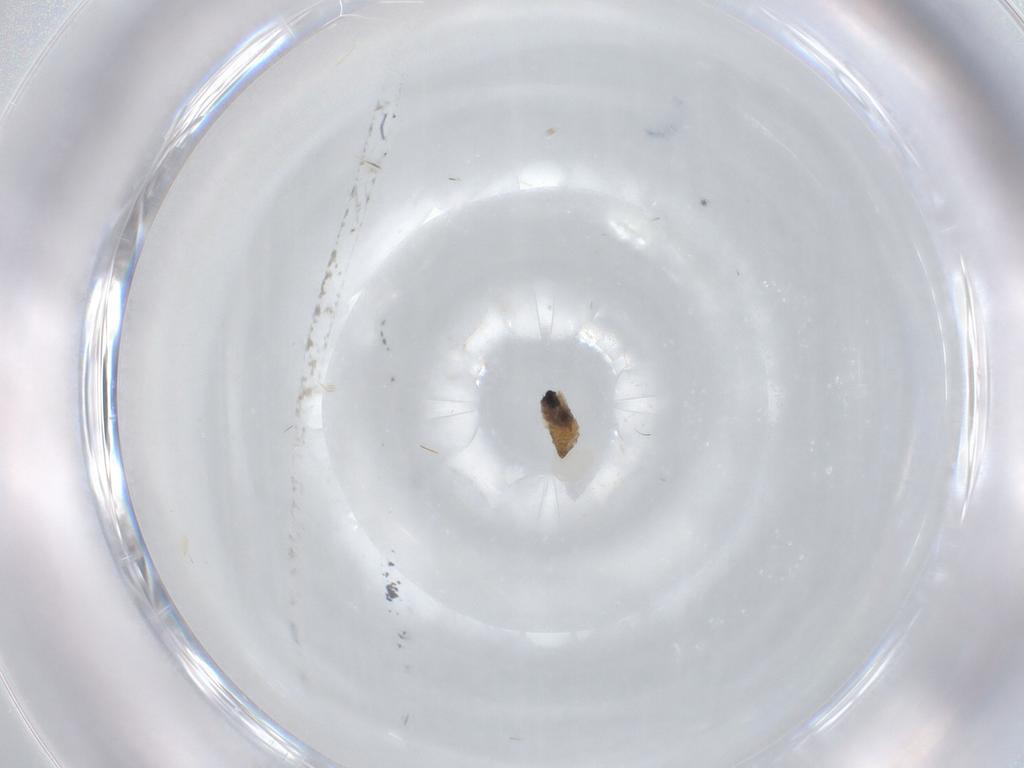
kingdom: Animalia
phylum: Arthropoda
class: Insecta
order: Diptera
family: Cecidomyiidae
